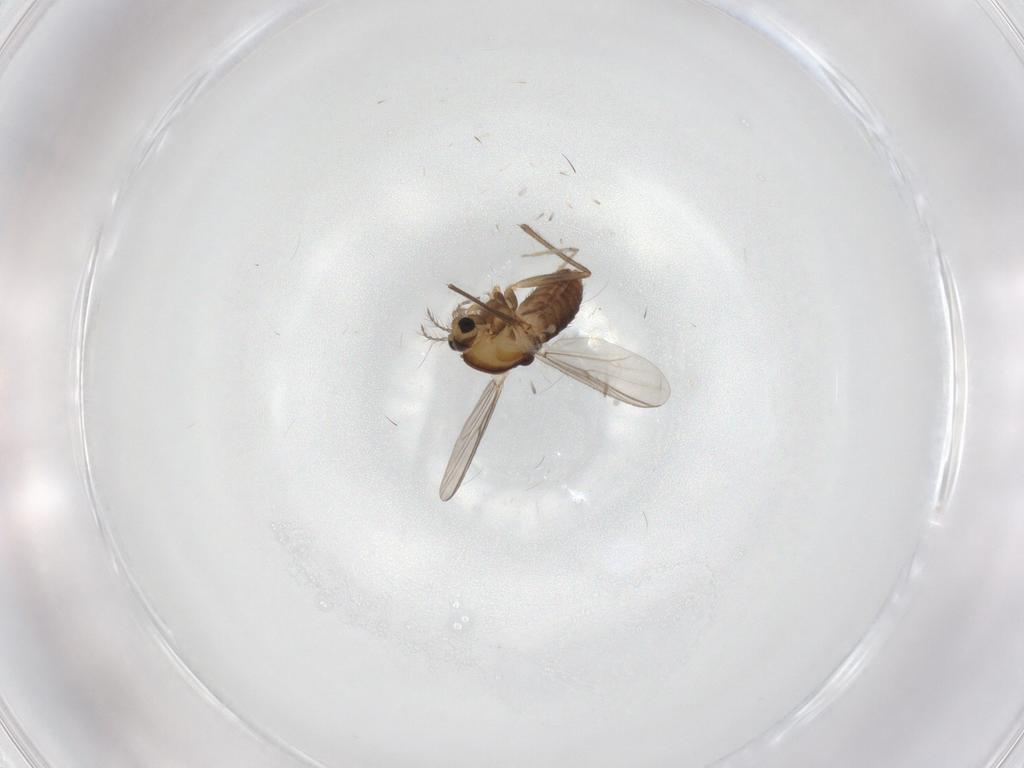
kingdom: Animalia
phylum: Arthropoda
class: Insecta
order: Diptera
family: Chironomidae
